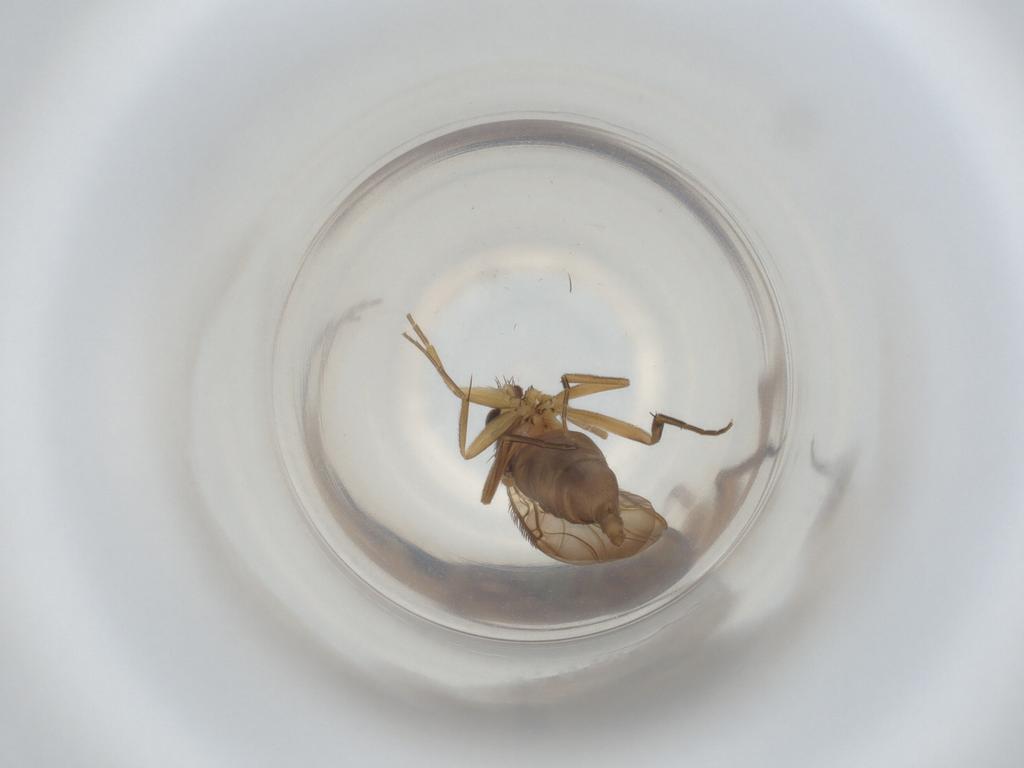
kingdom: Animalia
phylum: Arthropoda
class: Insecta
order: Diptera
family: Phoridae
